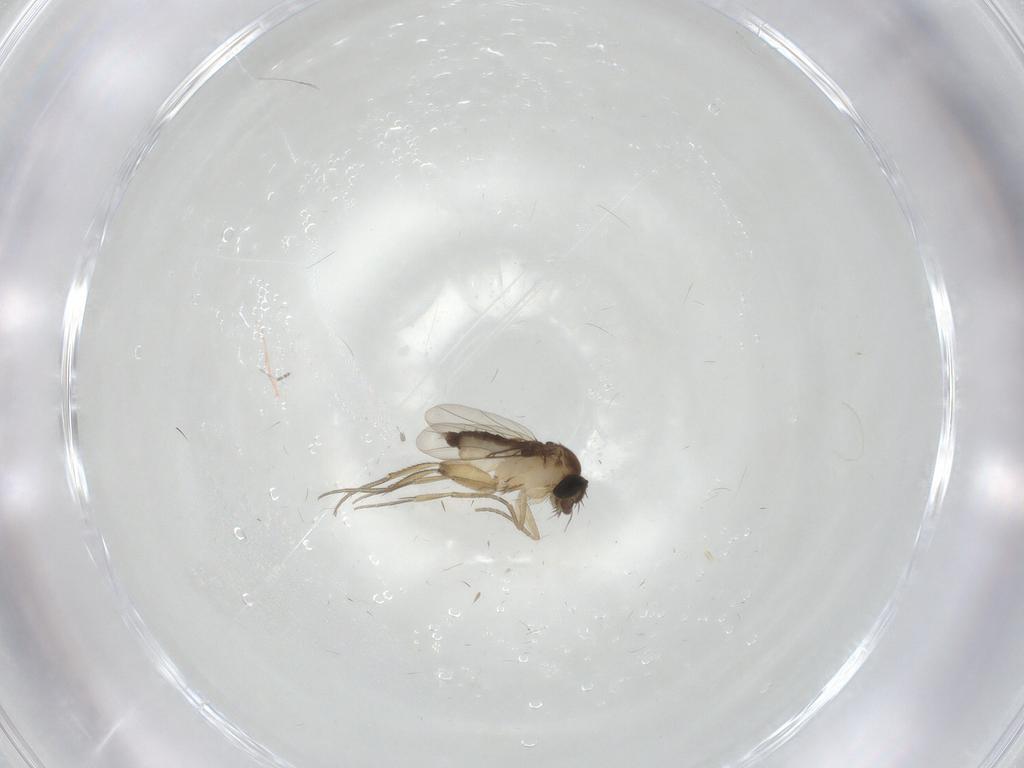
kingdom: Animalia
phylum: Arthropoda
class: Insecta
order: Diptera
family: Phoridae
